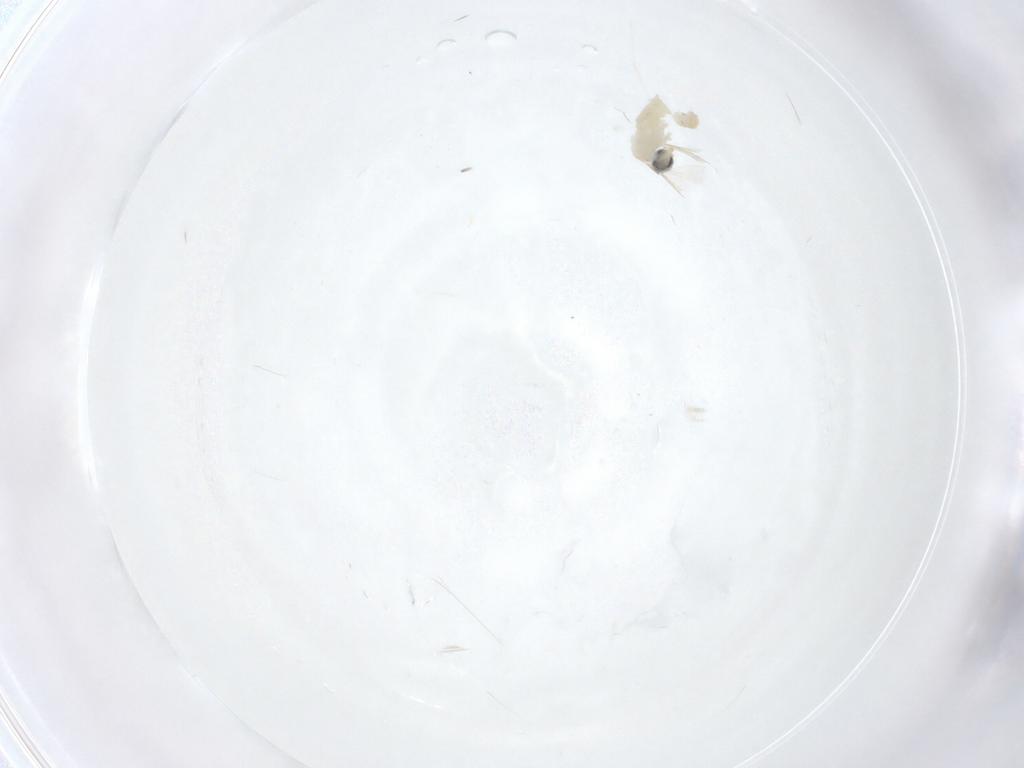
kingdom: Animalia
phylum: Arthropoda
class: Insecta
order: Diptera
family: Cecidomyiidae
